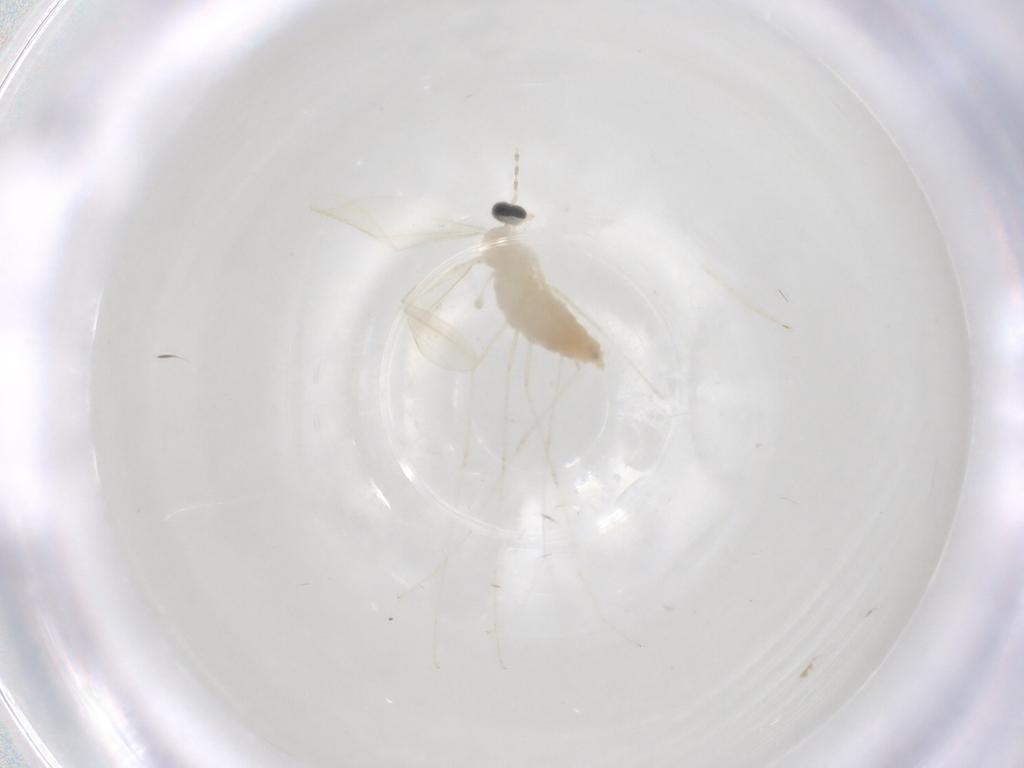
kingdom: Animalia
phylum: Arthropoda
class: Insecta
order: Diptera
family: Cecidomyiidae
